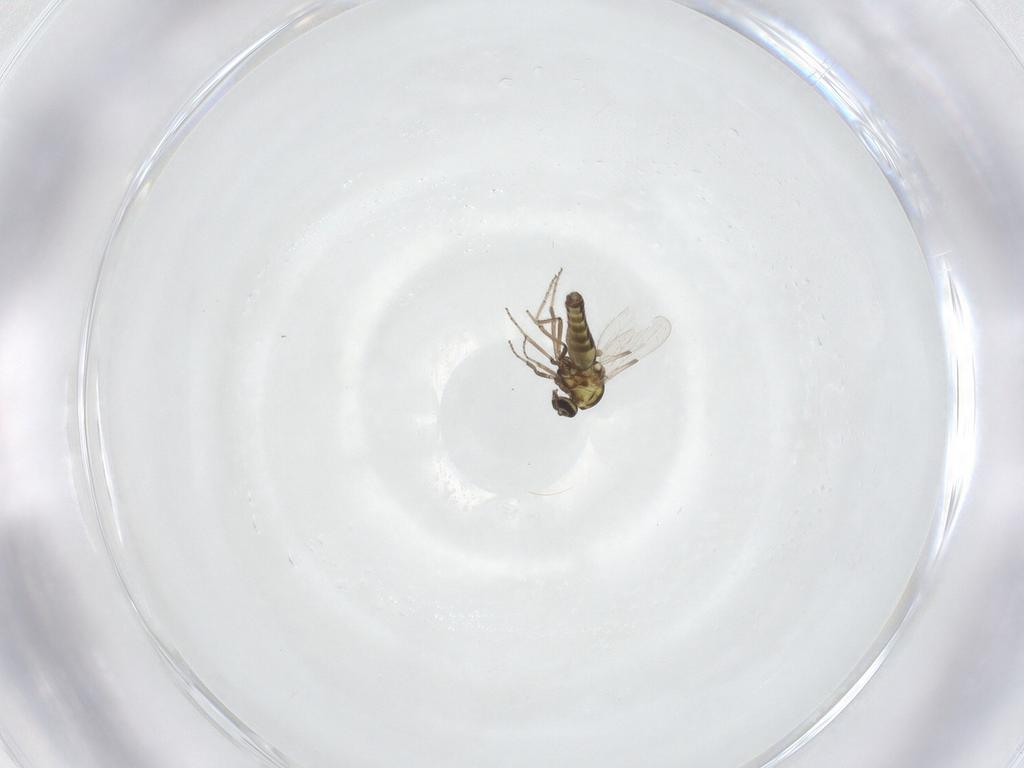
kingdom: Animalia
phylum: Arthropoda
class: Insecta
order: Diptera
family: Ceratopogonidae
